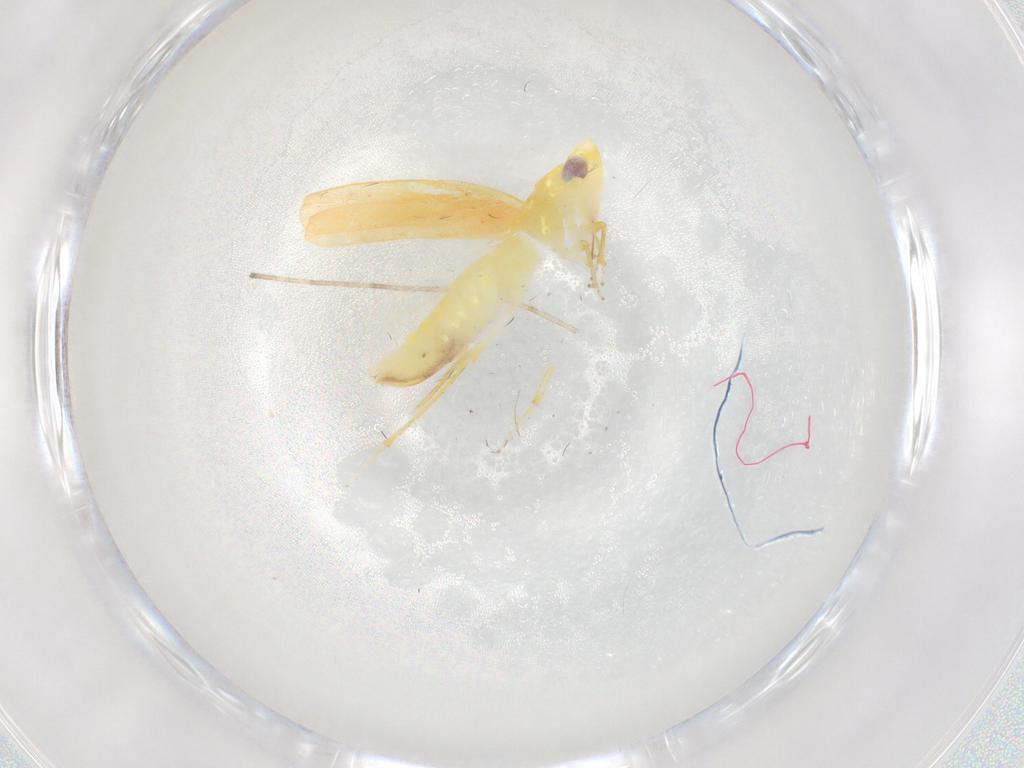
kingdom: Animalia
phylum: Arthropoda
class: Insecta
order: Hemiptera
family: Cicadellidae
